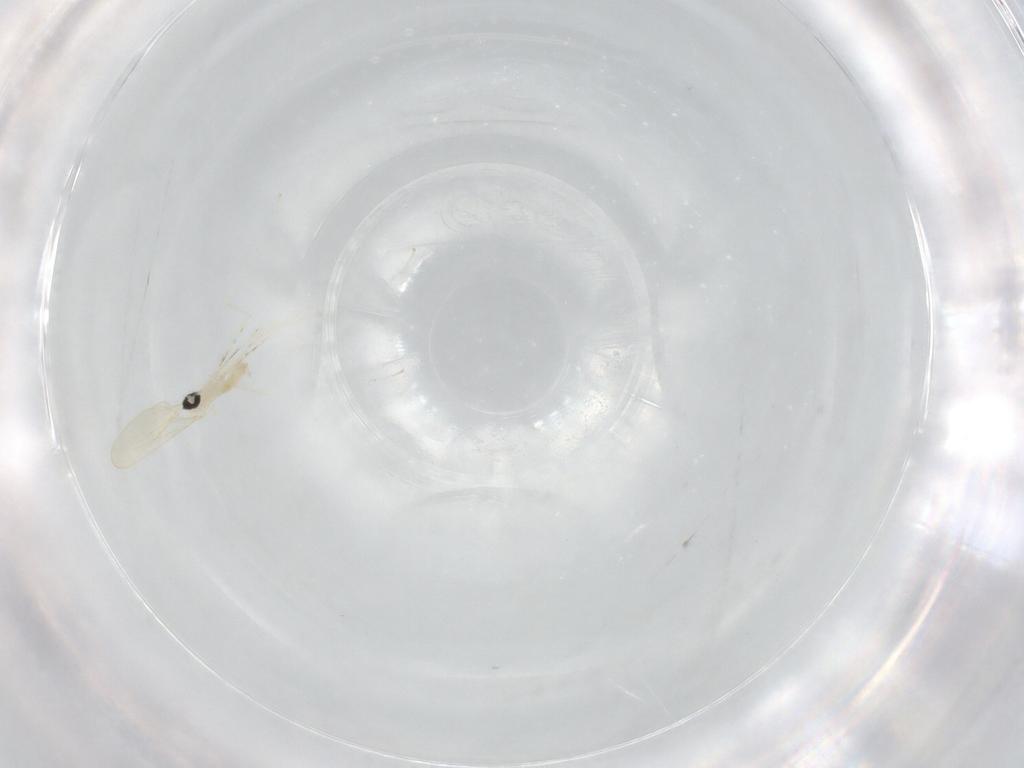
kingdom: Animalia
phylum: Arthropoda
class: Insecta
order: Diptera
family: Cecidomyiidae
